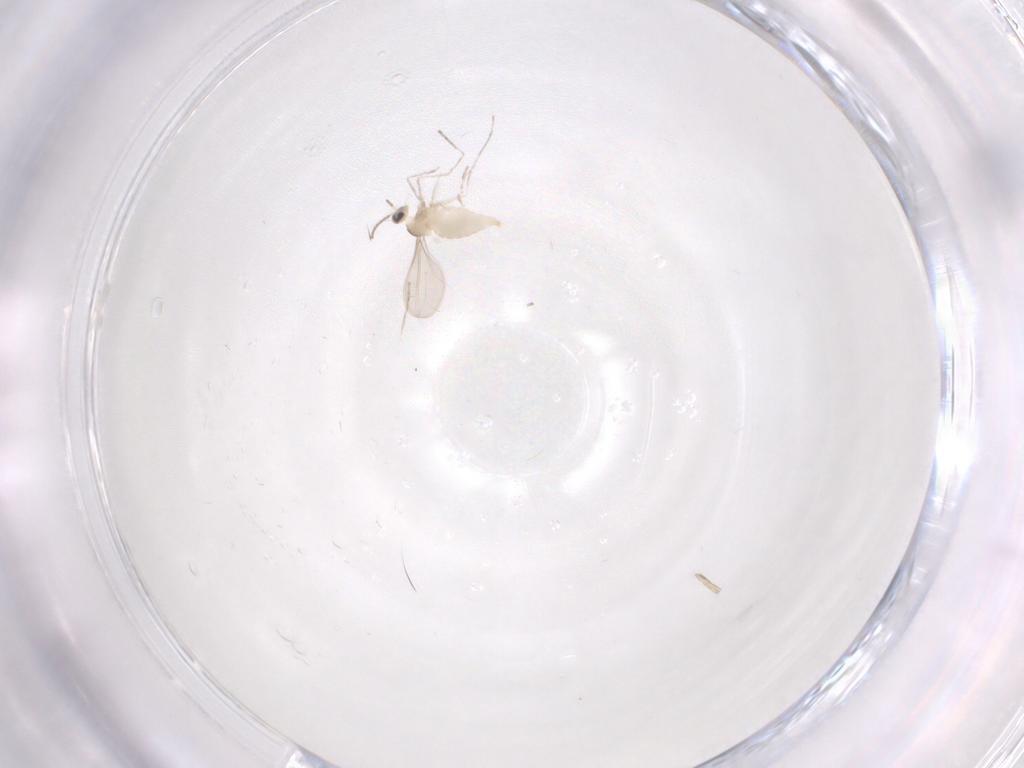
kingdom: Animalia
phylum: Arthropoda
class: Insecta
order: Diptera
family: Cecidomyiidae
